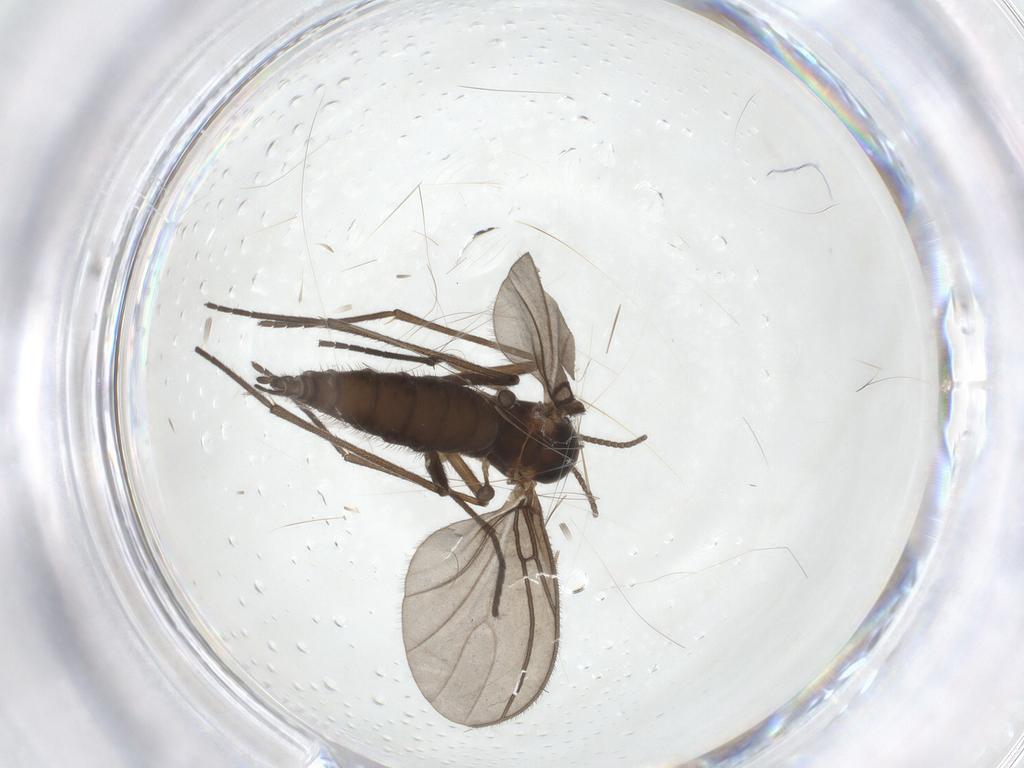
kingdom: Animalia
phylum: Arthropoda
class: Insecta
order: Diptera
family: Sciaridae
